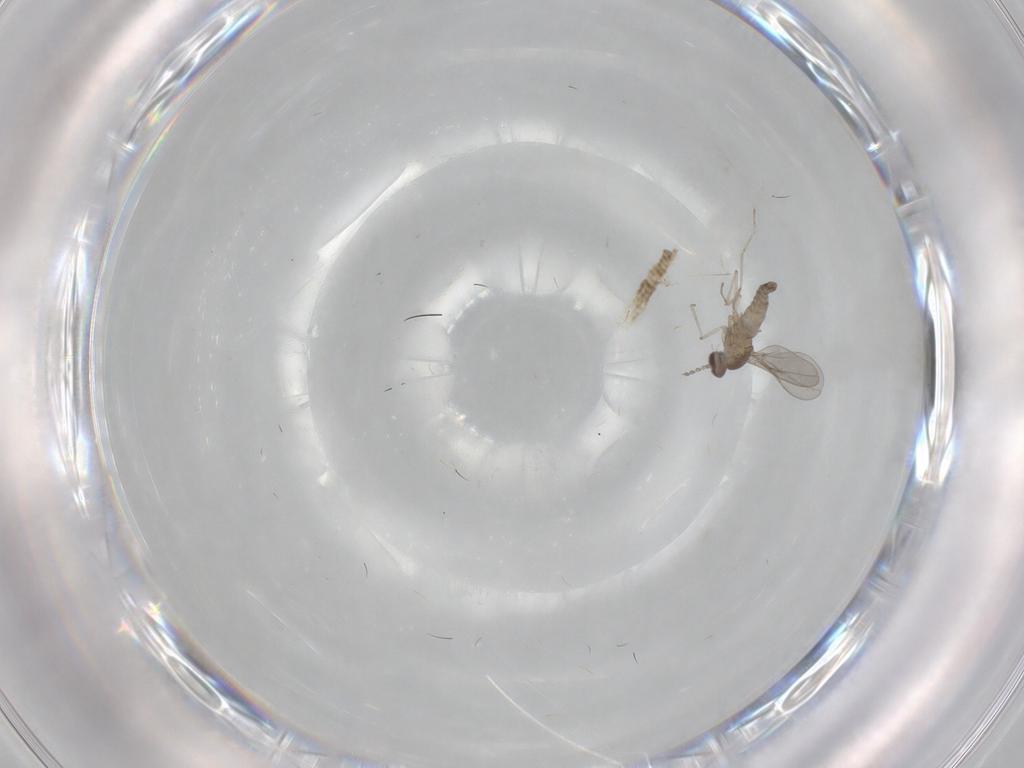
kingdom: Animalia
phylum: Arthropoda
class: Insecta
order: Diptera
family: Cecidomyiidae
